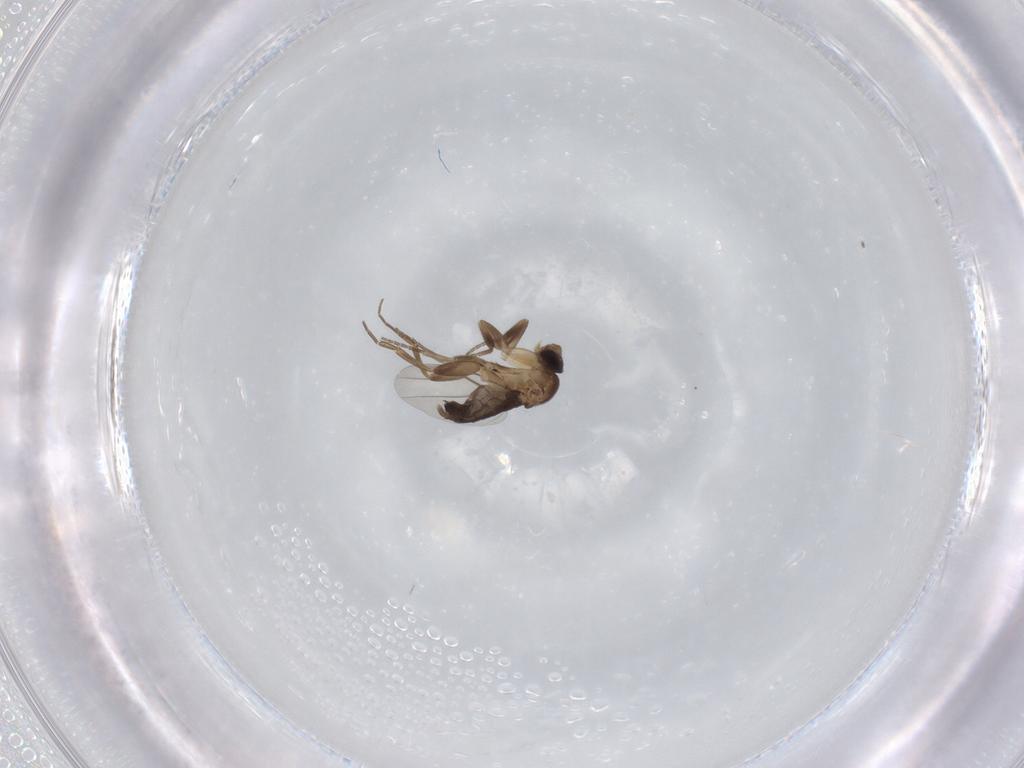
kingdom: Animalia
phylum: Arthropoda
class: Insecta
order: Diptera
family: Phoridae
